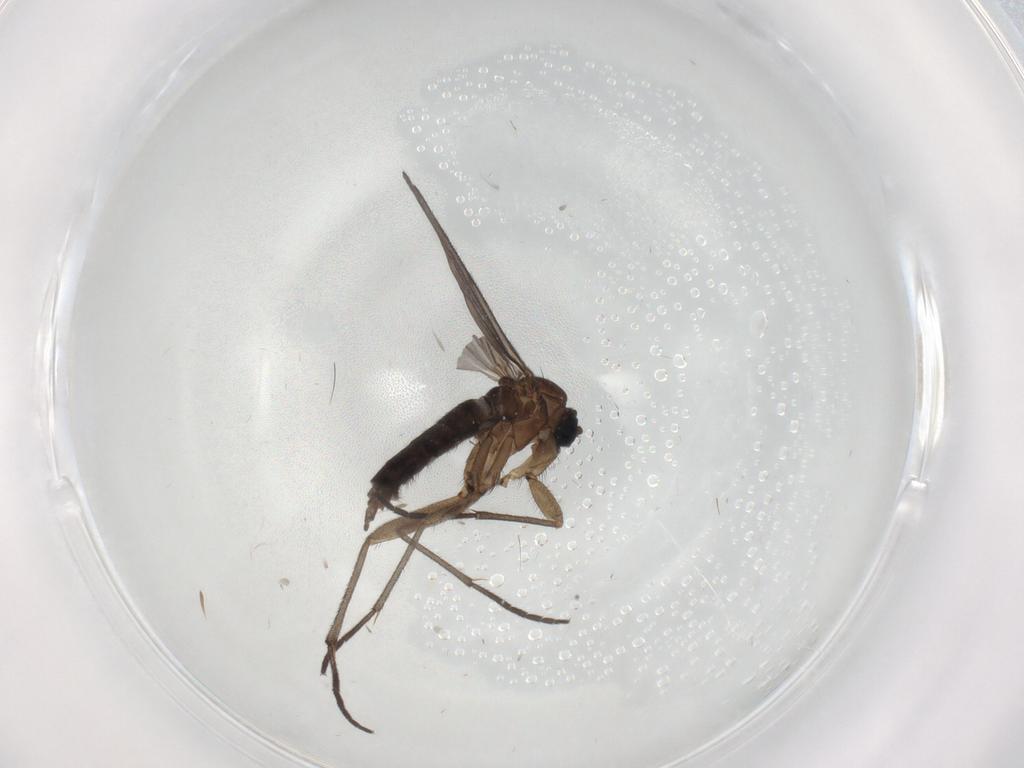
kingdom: Animalia
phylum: Arthropoda
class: Insecta
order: Diptera
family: Sciaridae
